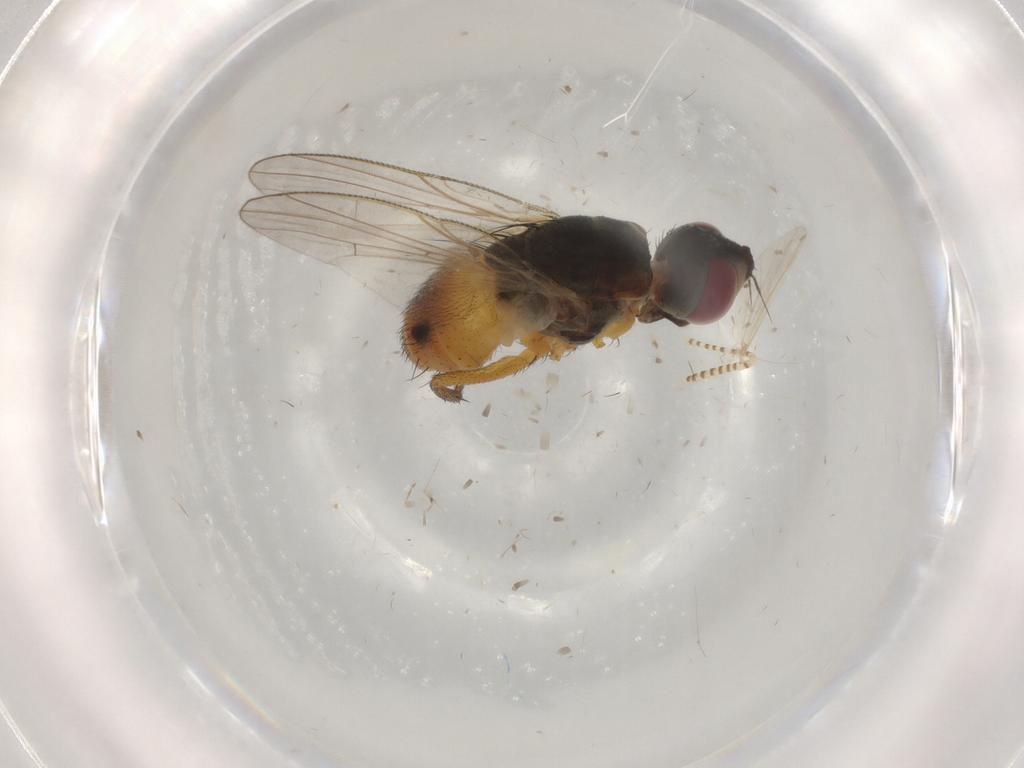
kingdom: Animalia
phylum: Arthropoda
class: Insecta
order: Diptera
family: Muscidae
